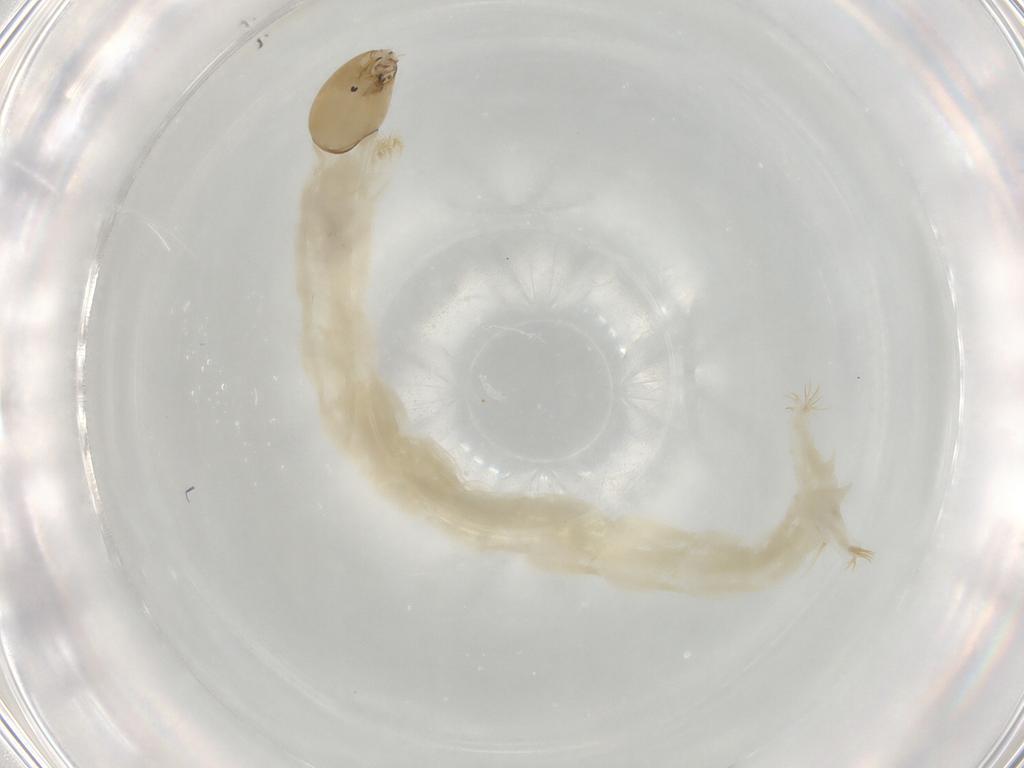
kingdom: Animalia
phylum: Arthropoda
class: Insecta
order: Diptera
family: Chironomidae
